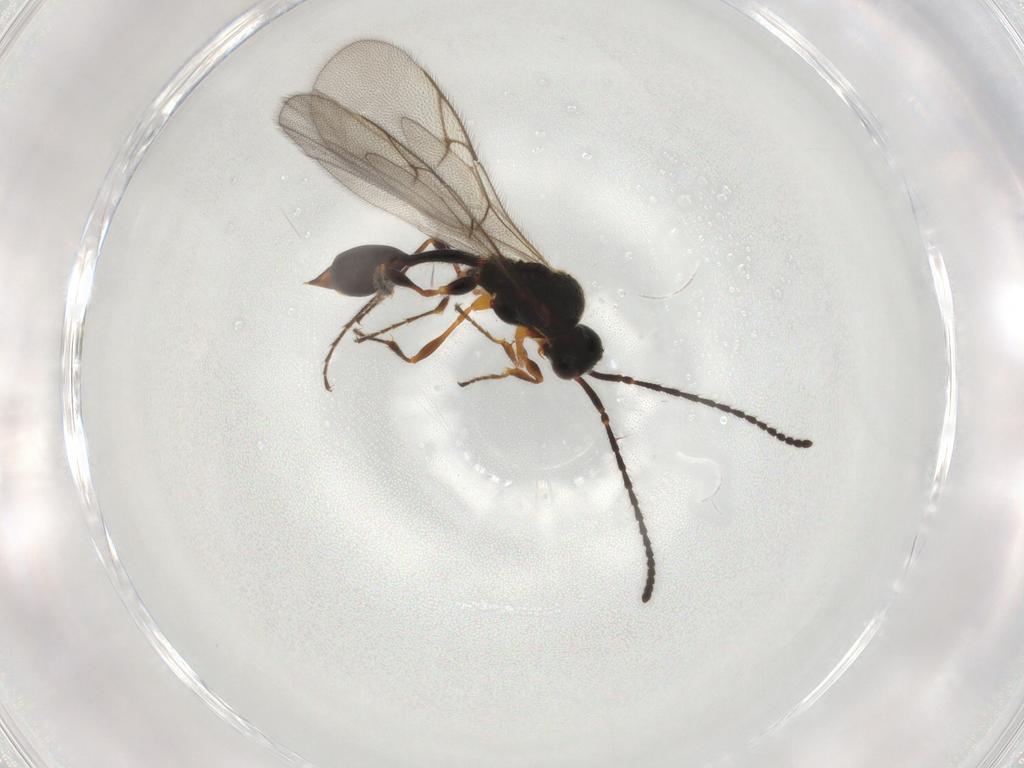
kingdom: Animalia
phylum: Arthropoda
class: Insecta
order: Hymenoptera
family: Diapriidae
